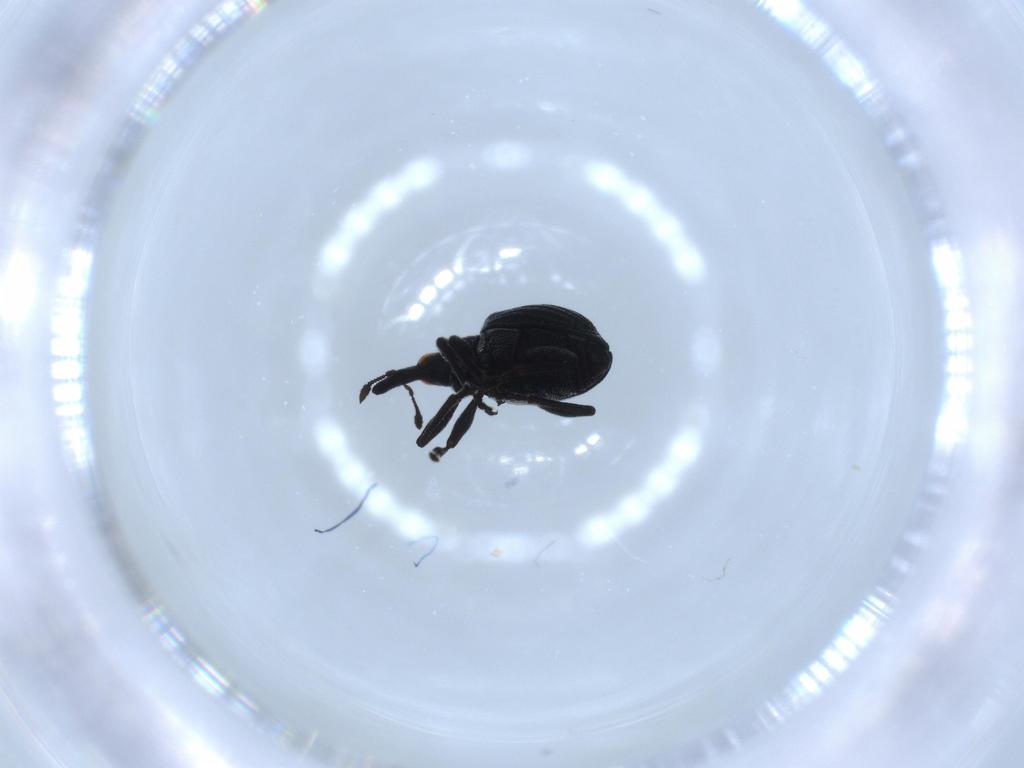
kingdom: Animalia
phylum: Arthropoda
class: Insecta
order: Coleoptera
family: Brentidae
